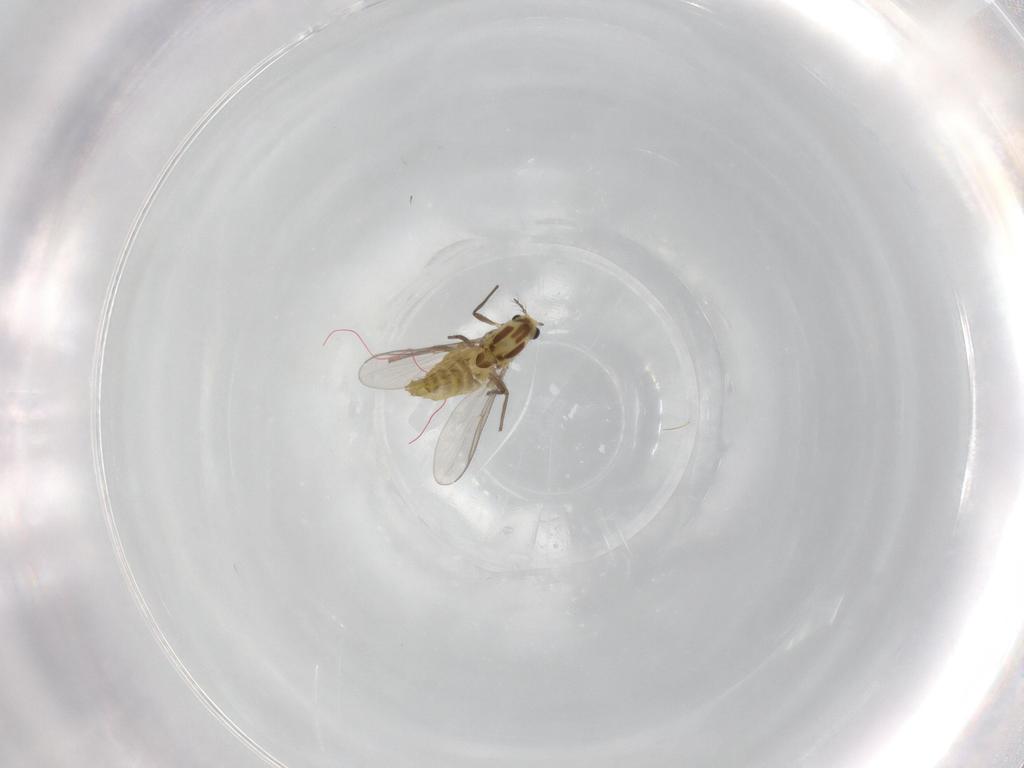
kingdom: Animalia
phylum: Arthropoda
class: Insecta
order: Diptera
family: Chironomidae
